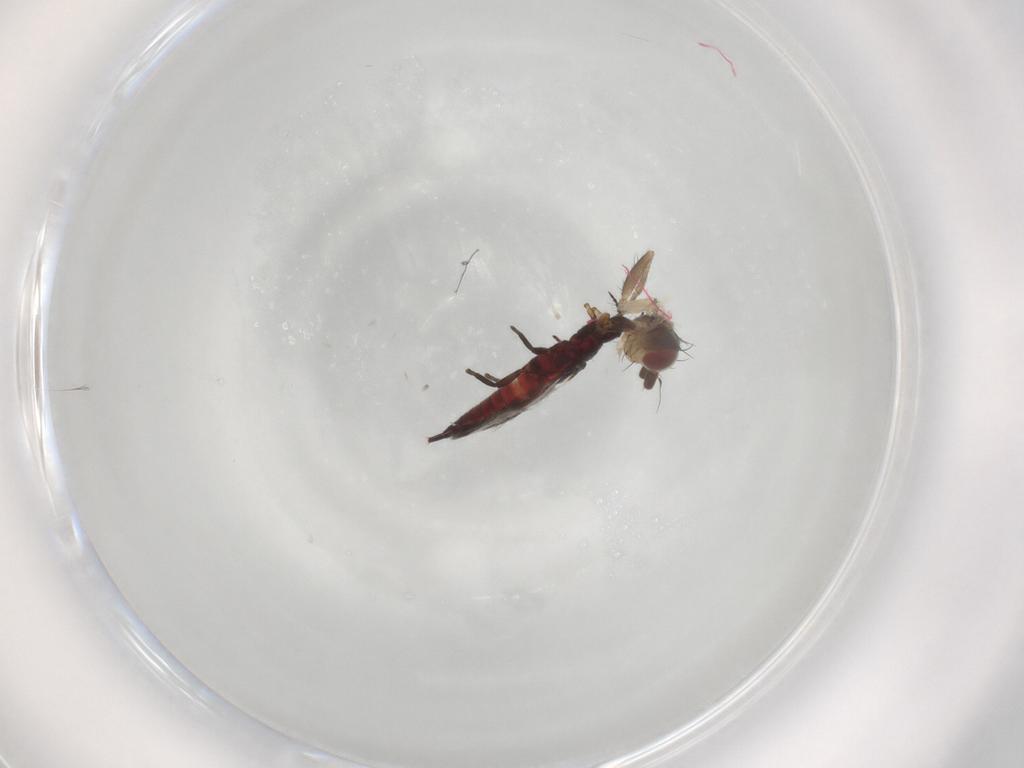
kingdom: Animalia
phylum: Arthropoda
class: Insecta
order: Thysanoptera
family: Phlaeothripidae
